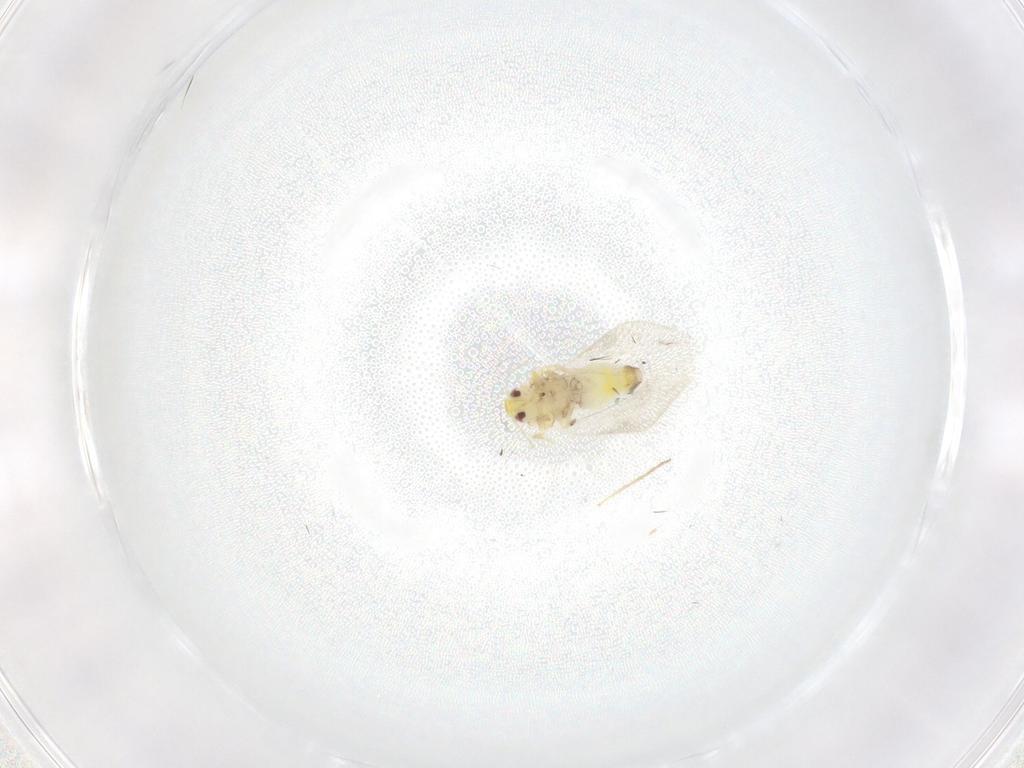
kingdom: Animalia
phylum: Arthropoda
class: Insecta
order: Hemiptera
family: Aleyrodidae
